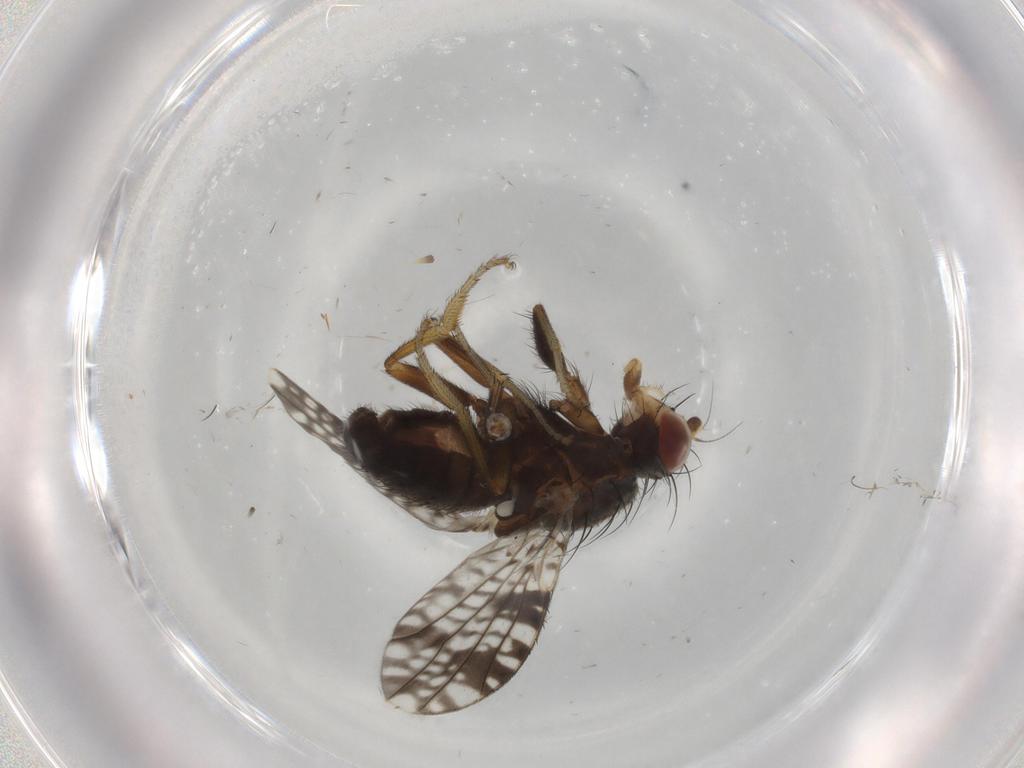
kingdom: Animalia
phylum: Arthropoda
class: Insecta
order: Diptera
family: Tephritidae
